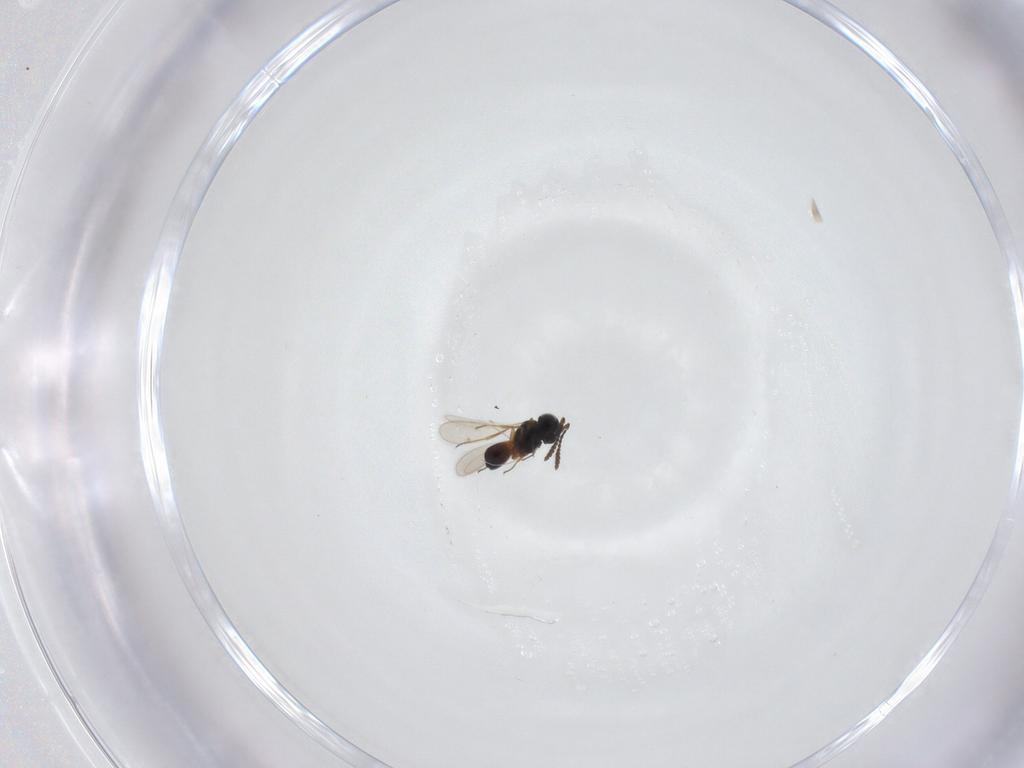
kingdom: Animalia
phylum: Arthropoda
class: Insecta
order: Hymenoptera
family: Scelionidae
